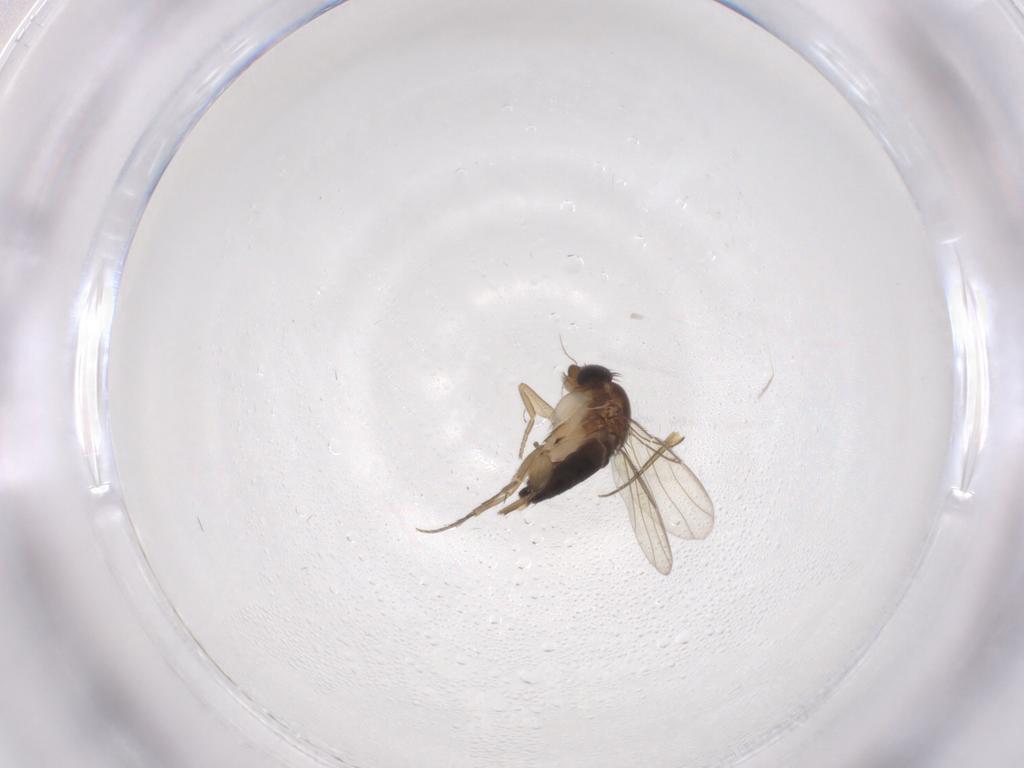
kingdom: Animalia
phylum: Arthropoda
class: Insecta
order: Diptera
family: Phoridae
